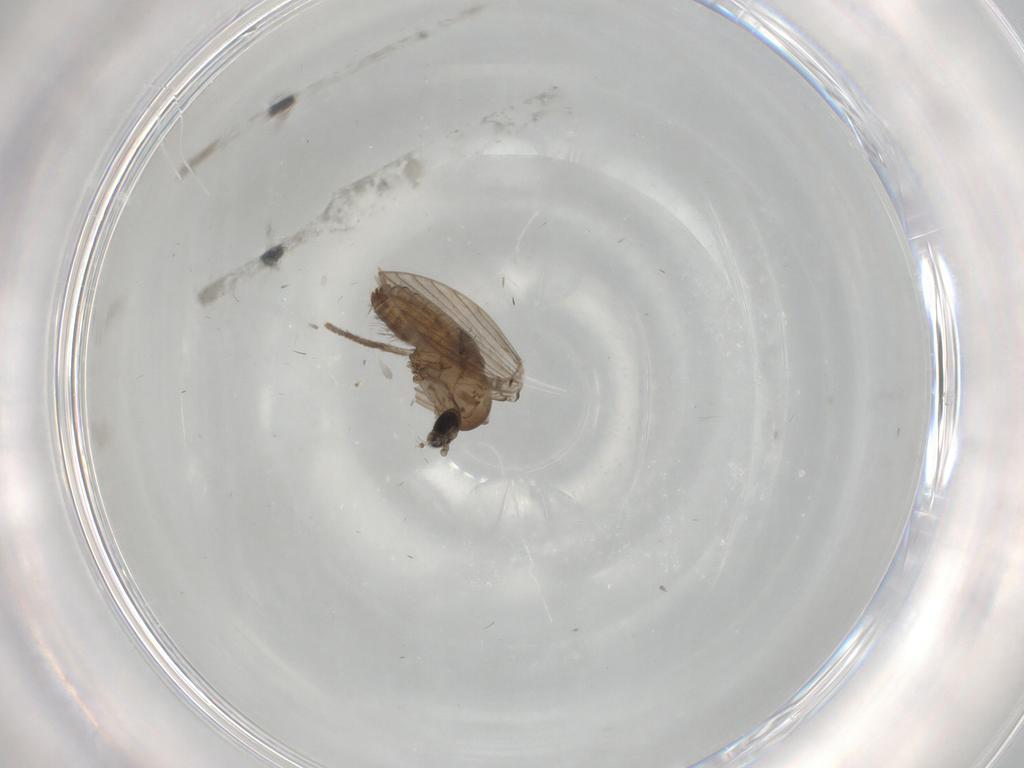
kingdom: Animalia
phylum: Arthropoda
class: Insecta
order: Diptera
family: Psychodidae
